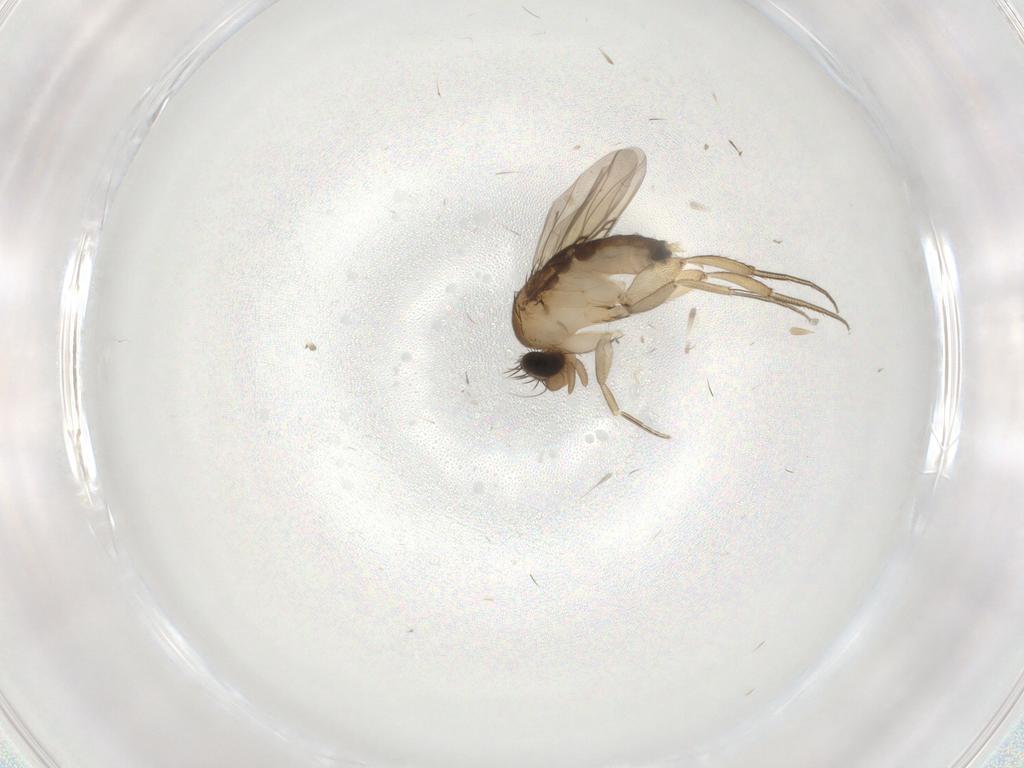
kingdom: Animalia
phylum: Arthropoda
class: Insecta
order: Diptera
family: Phoridae
